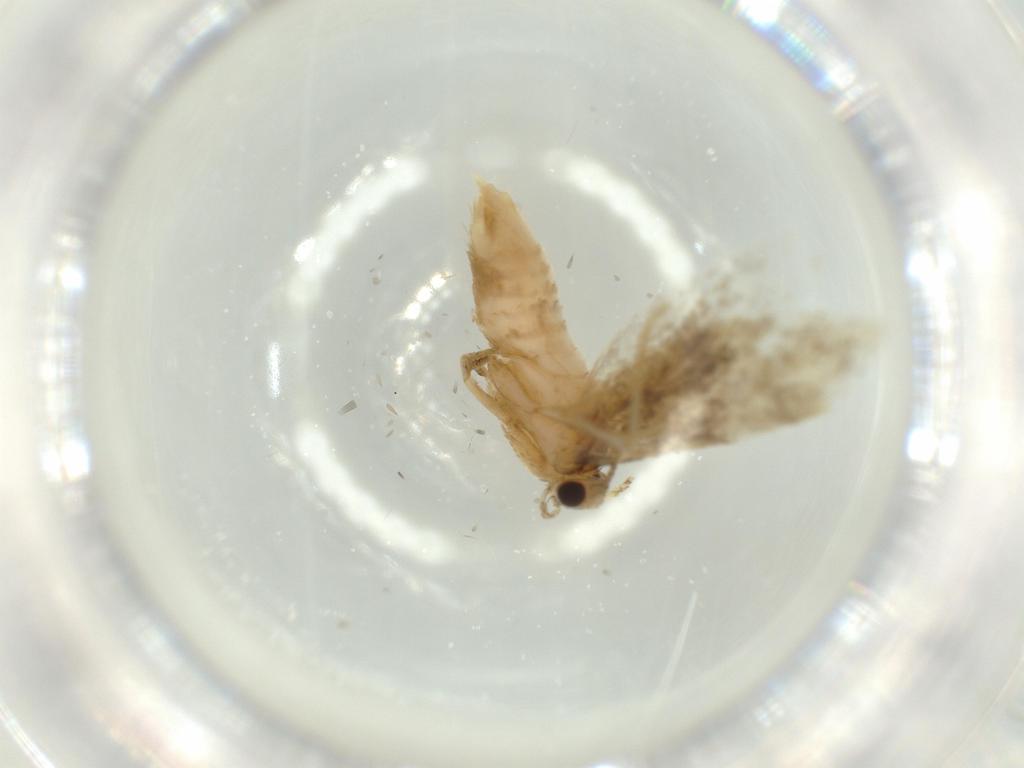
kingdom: Animalia
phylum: Arthropoda
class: Insecta
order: Lepidoptera
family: Tineidae
